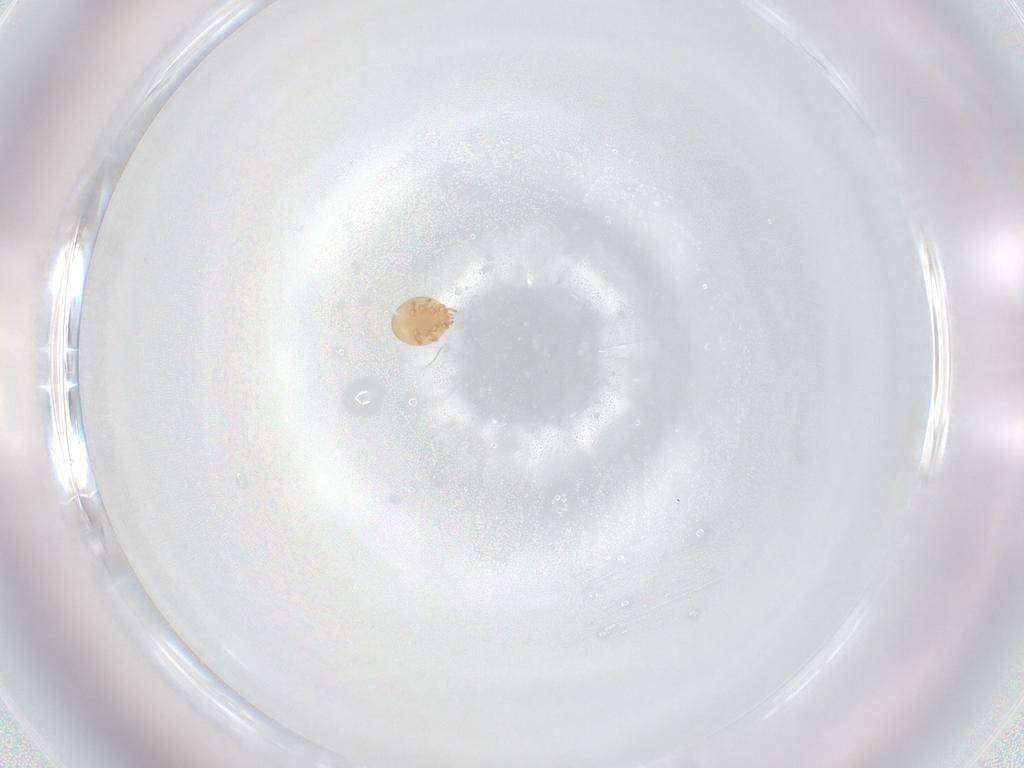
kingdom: Animalia
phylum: Arthropoda
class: Arachnida
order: Mesostigmata
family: Trematuridae
